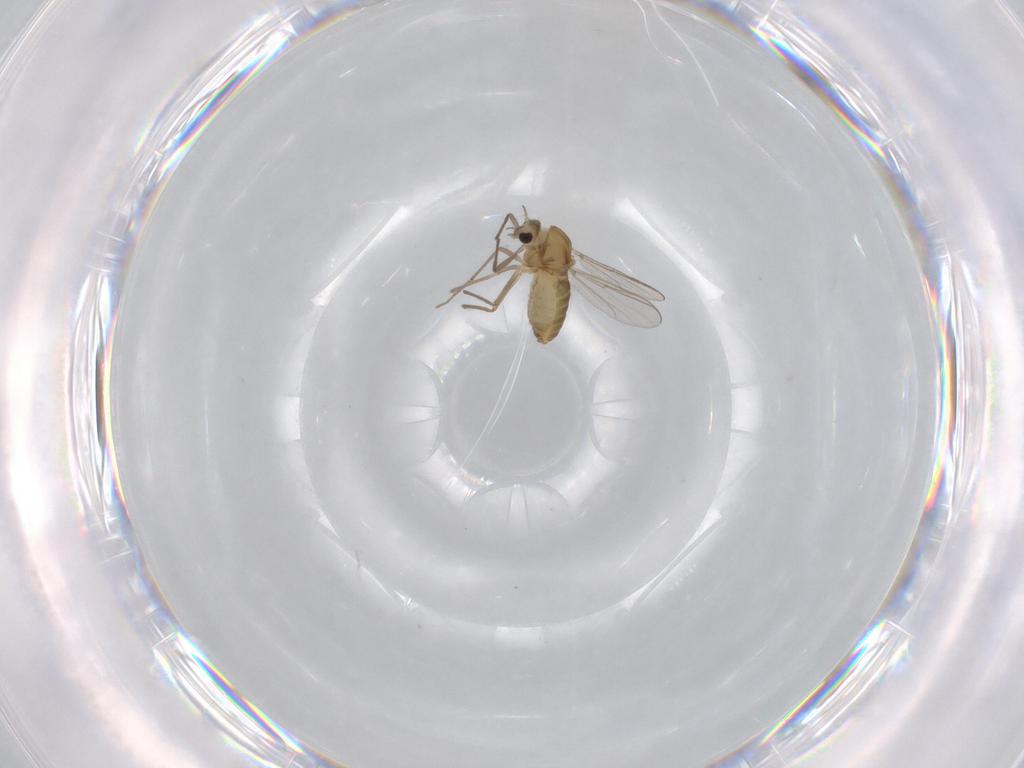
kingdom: Animalia
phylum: Arthropoda
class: Insecta
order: Diptera
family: Chironomidae
